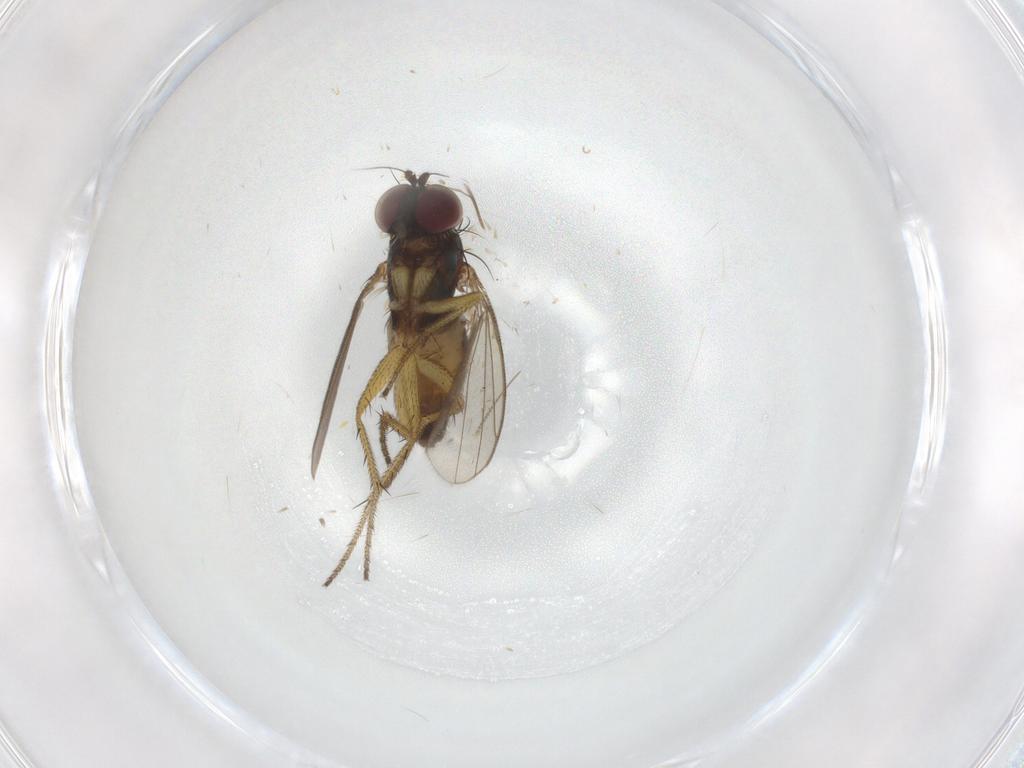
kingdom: Animalia
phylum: Arthropoda
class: Insecta
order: Diptera
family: Dolichopodidae
